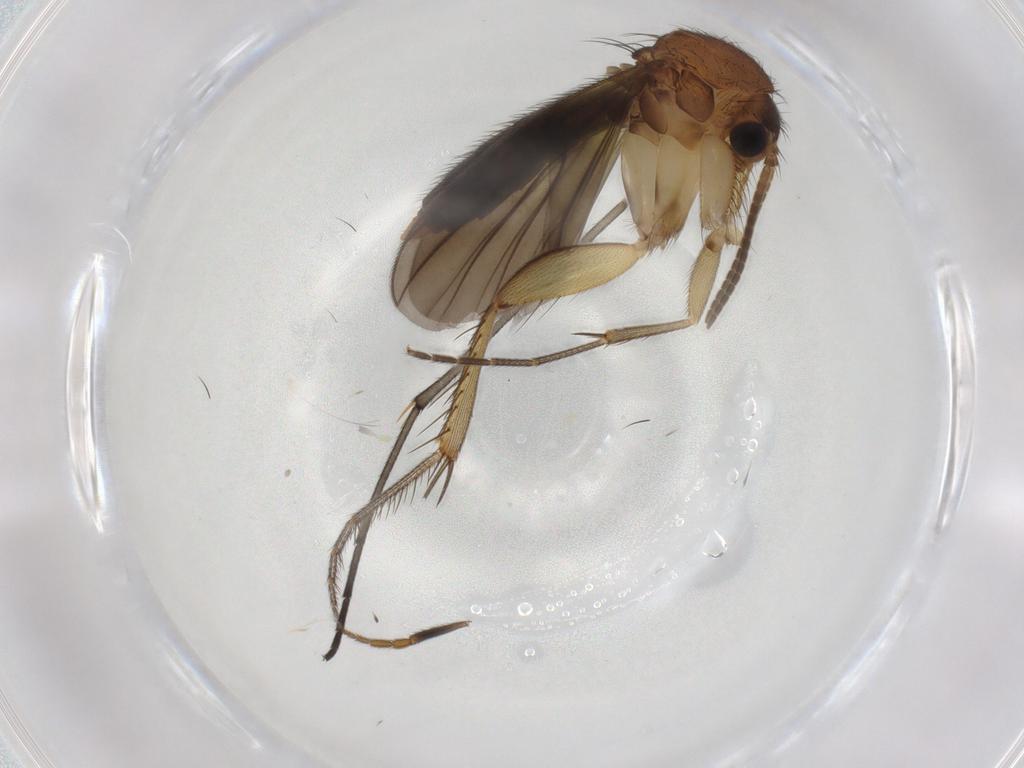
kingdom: Animalia
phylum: Arthropoda
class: Insecta
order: Diptera
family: Sphaeroceridae
